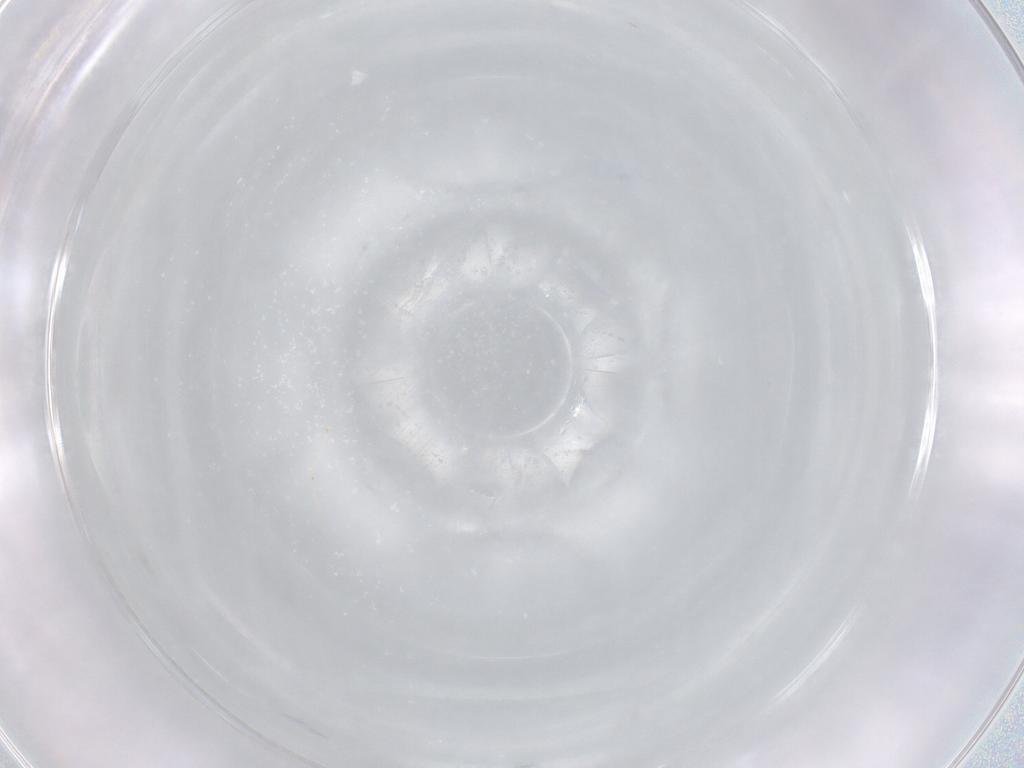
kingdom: Animalia
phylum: Arthropoda
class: Insecta
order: Diptera
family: Cecidomyiidae
